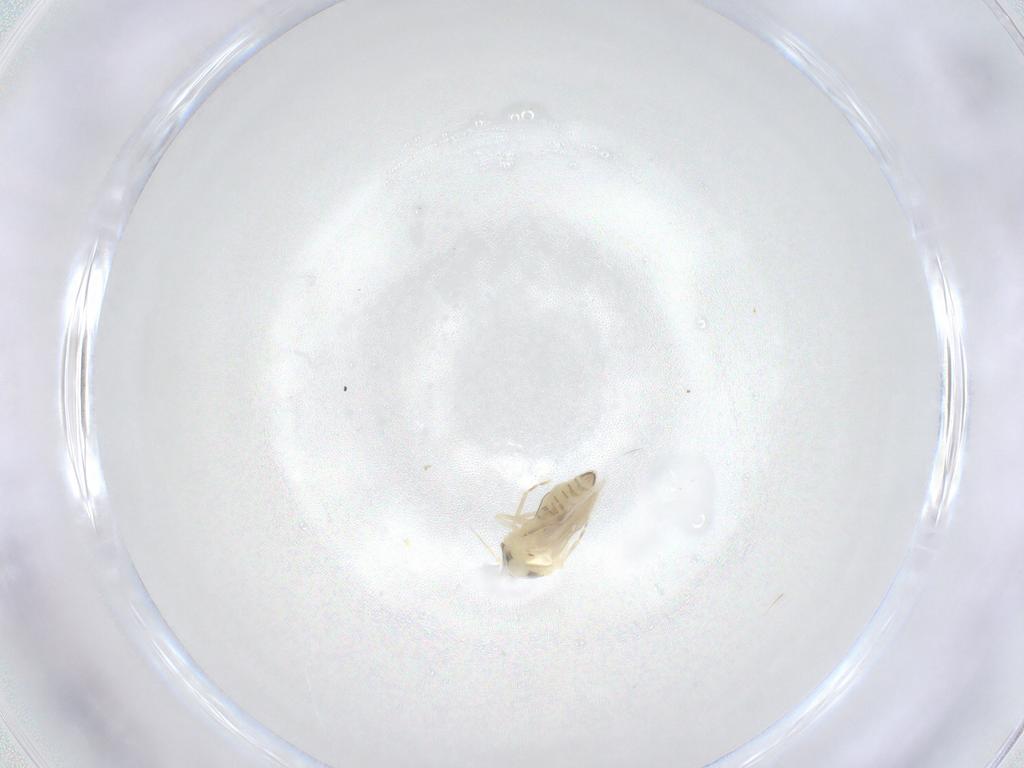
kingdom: Animalia
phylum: Arthropoda
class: Insecta
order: Hemiptera
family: Aleyrodidae
